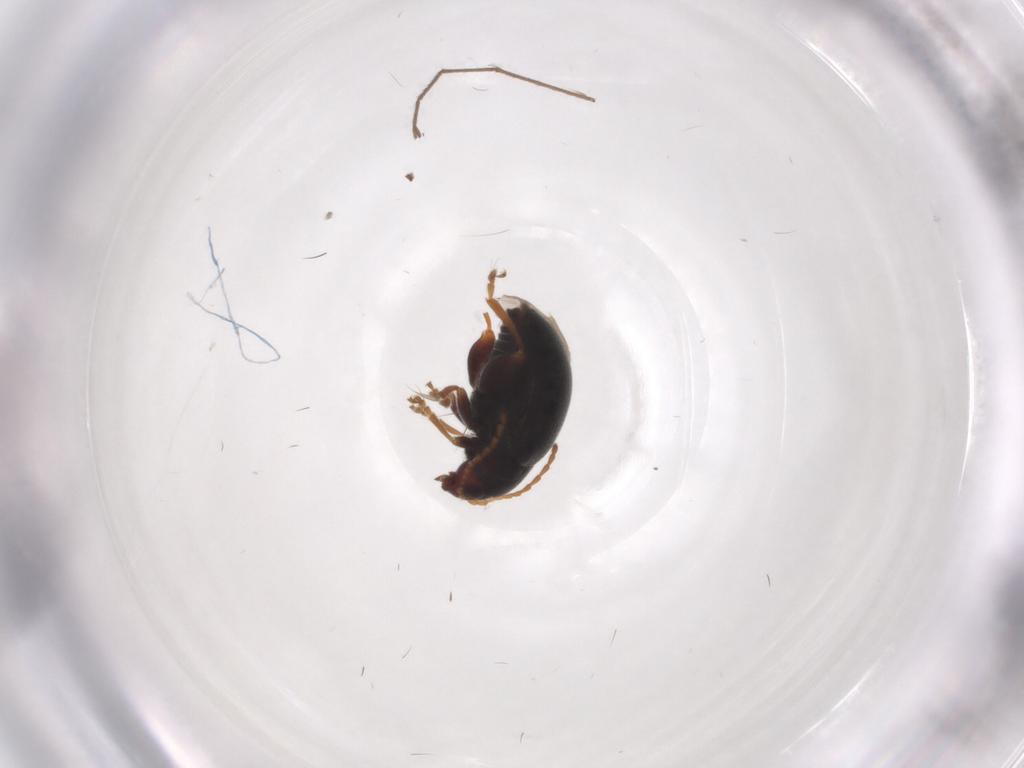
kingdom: Animalia
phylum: Arthropoda
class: Insecta
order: Coleoptera
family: Chrysomelidae
